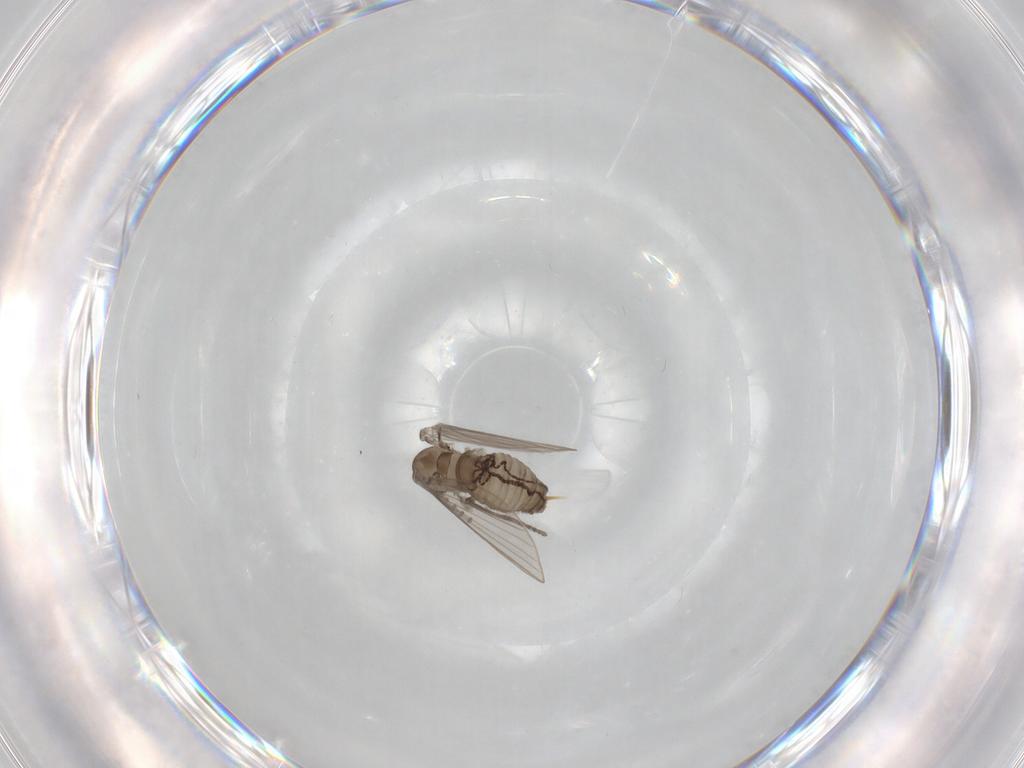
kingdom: Animalia
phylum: Arthropoda
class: Insecta
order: Diptera
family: Psychodidae
